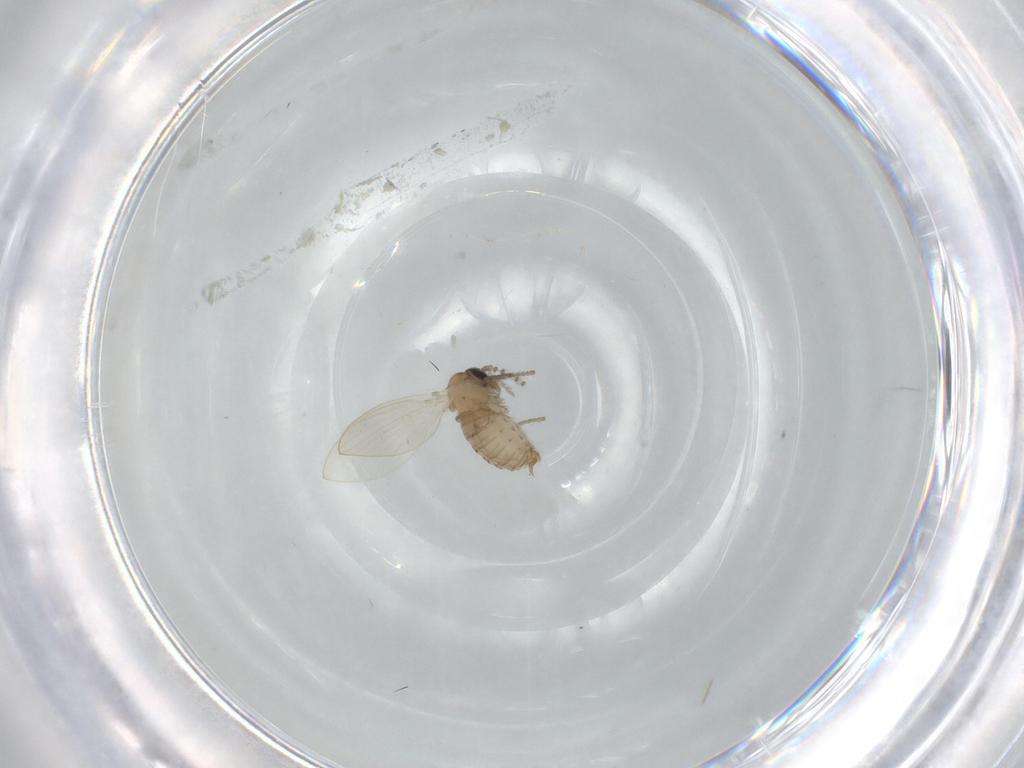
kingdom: Animalia
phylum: Arthropoda
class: Insecta
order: Diptera
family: Psychodidae
